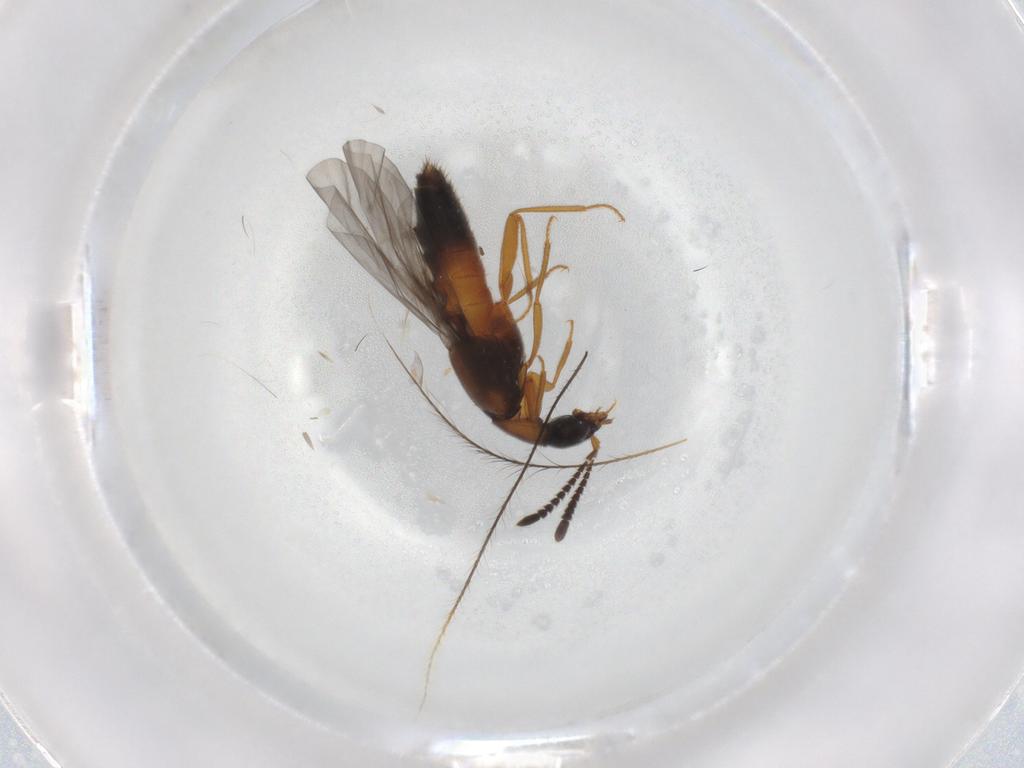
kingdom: Animalia
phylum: Arthropoda
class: Insecta
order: Coleoptera
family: Staphylinidae
